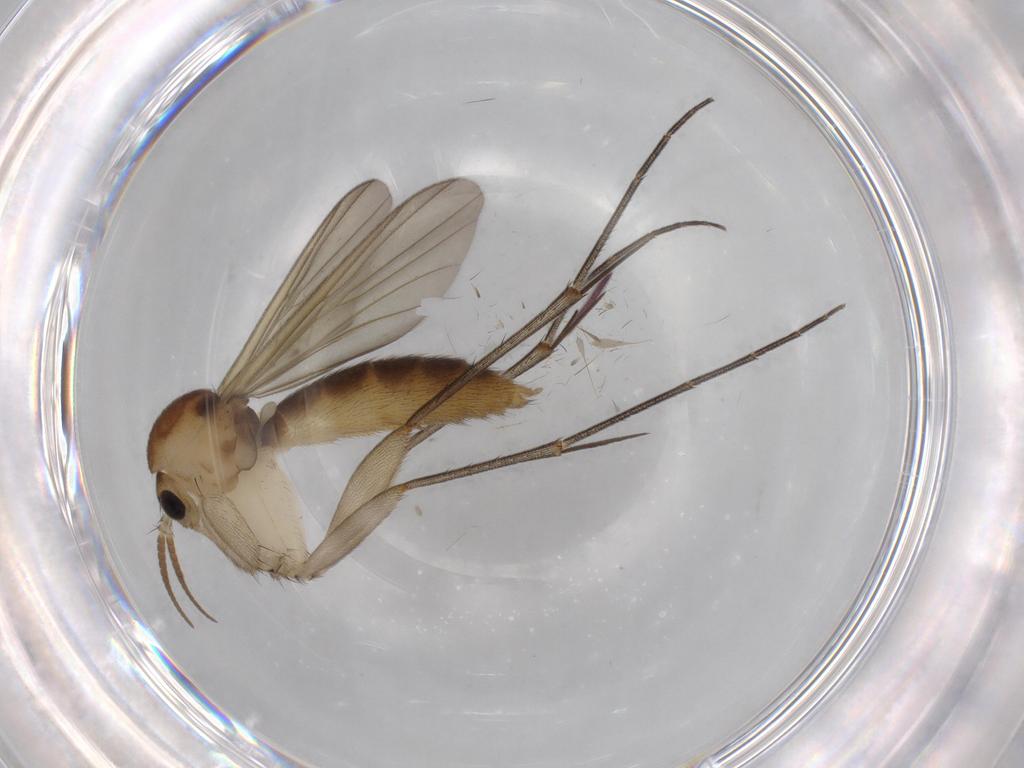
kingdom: Animalia
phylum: Arthropoda
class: Insecta
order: Diptera
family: Mycetophilidae
